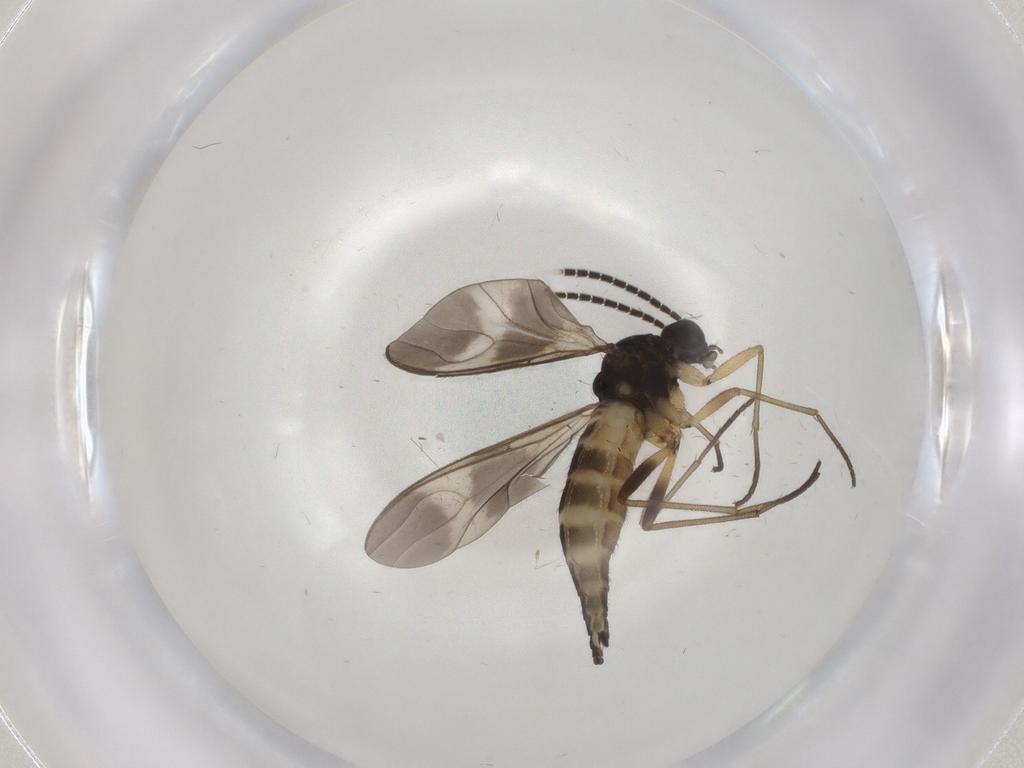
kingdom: Animalia
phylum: Arthropoda
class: Insecta
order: Diptera
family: Sciaridae
